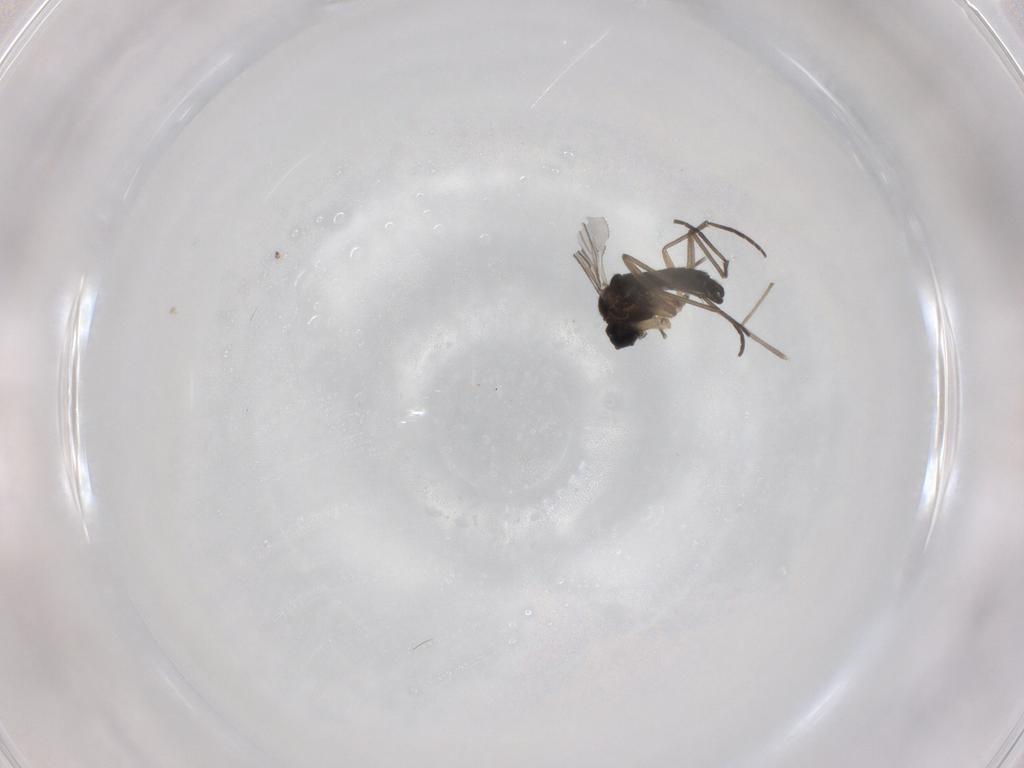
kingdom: Animalia
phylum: Arthropoda
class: Insecta
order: Diptera
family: Sciaridae
